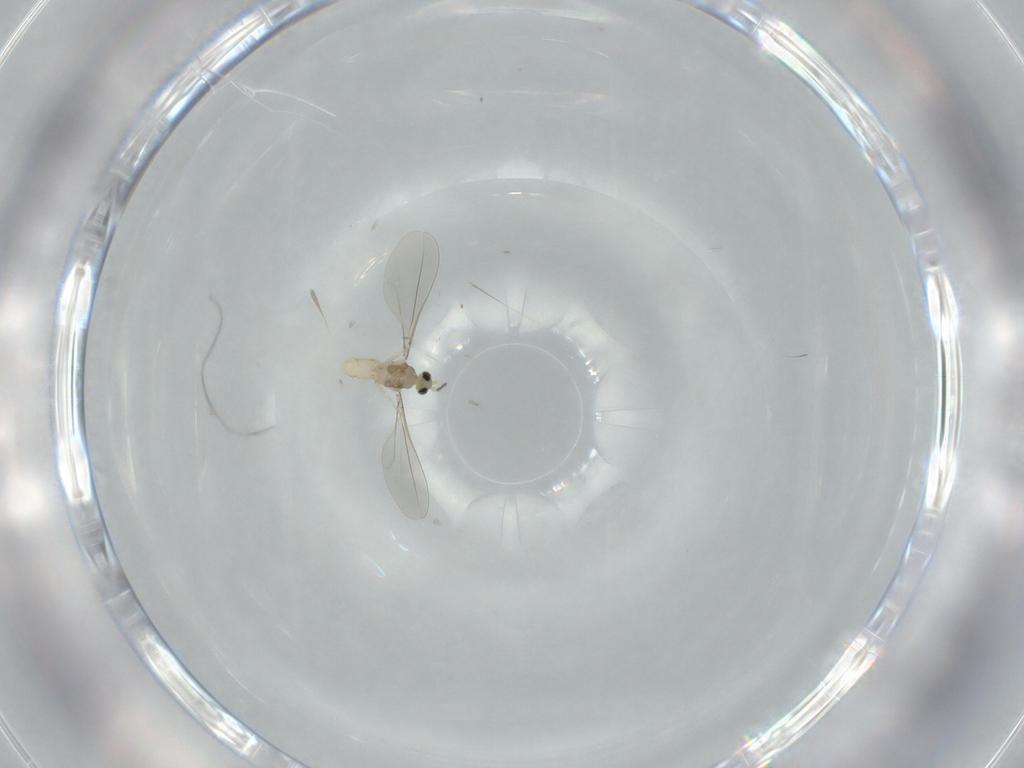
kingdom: Animalia
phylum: Arthropoda
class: Insecta
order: Diptera
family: Cecidomyiidae
